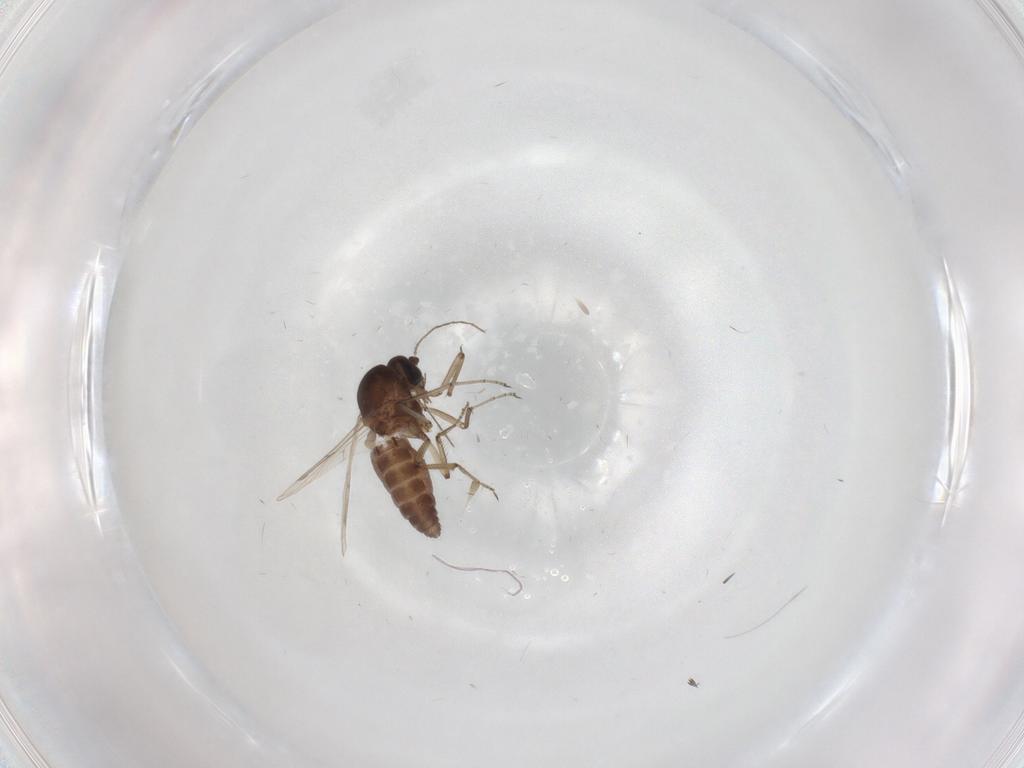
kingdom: Animalia
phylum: Arthropoda
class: Insecta
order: Diptera
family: Ceratopogonidae
